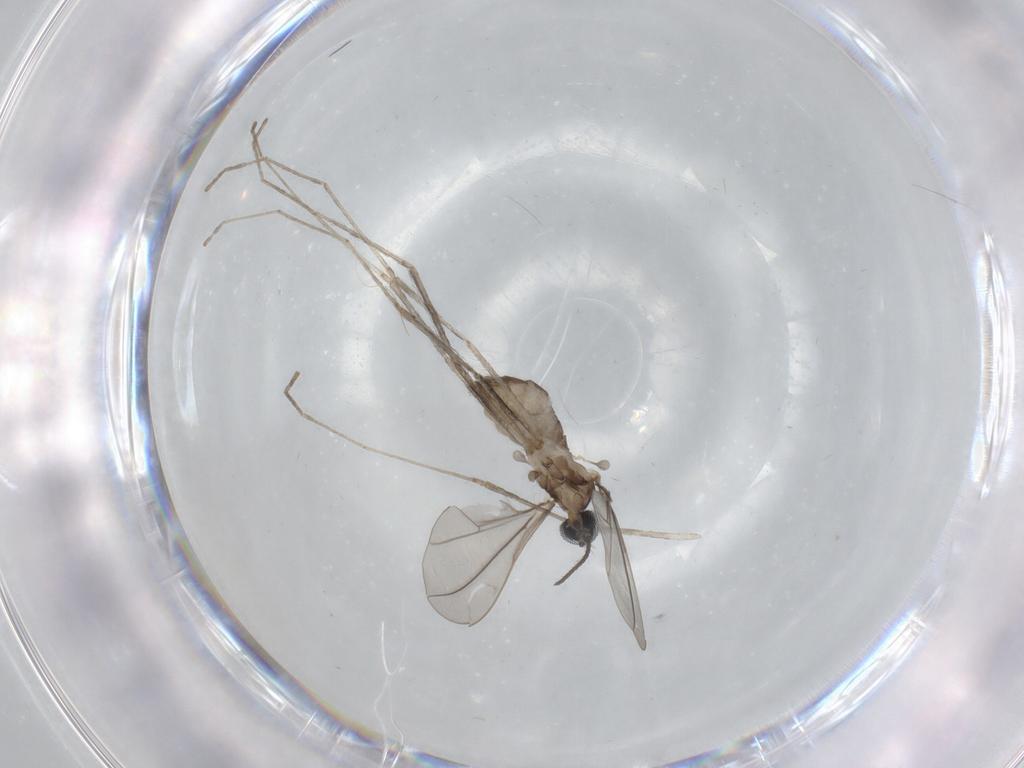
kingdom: Animalia
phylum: Arthropoda
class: Insecta
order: Diptera
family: Cecidomyiidae
